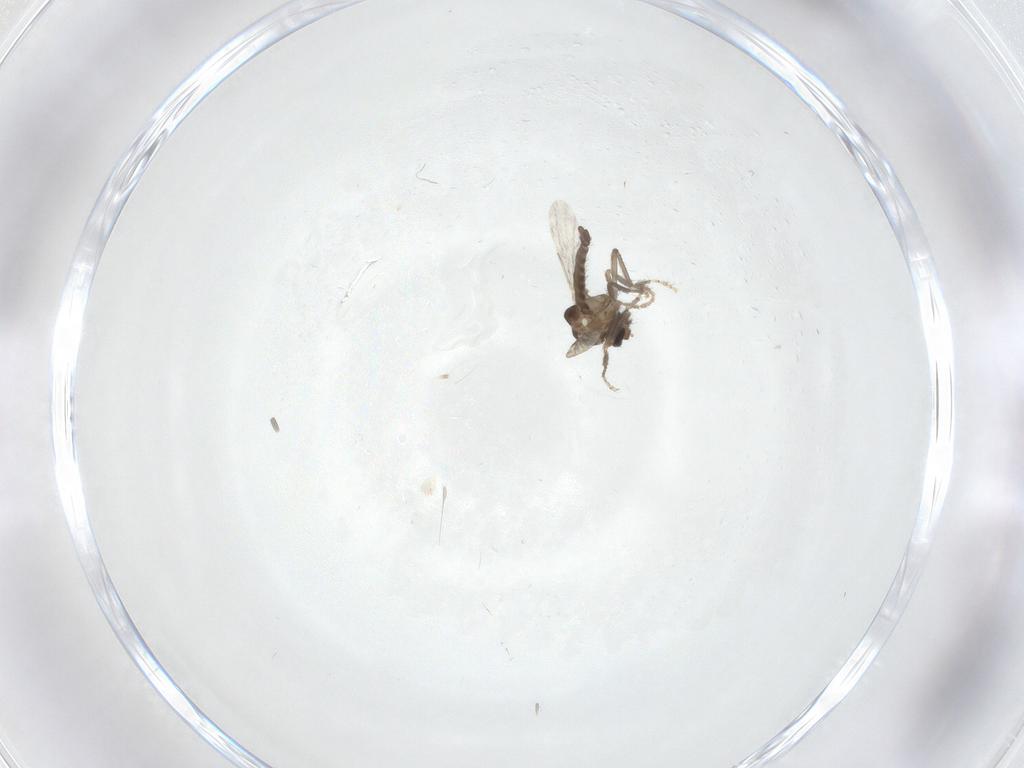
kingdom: Animalia
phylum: Arthropoda
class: Insecta
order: Diptera
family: Ceratopogonidae
